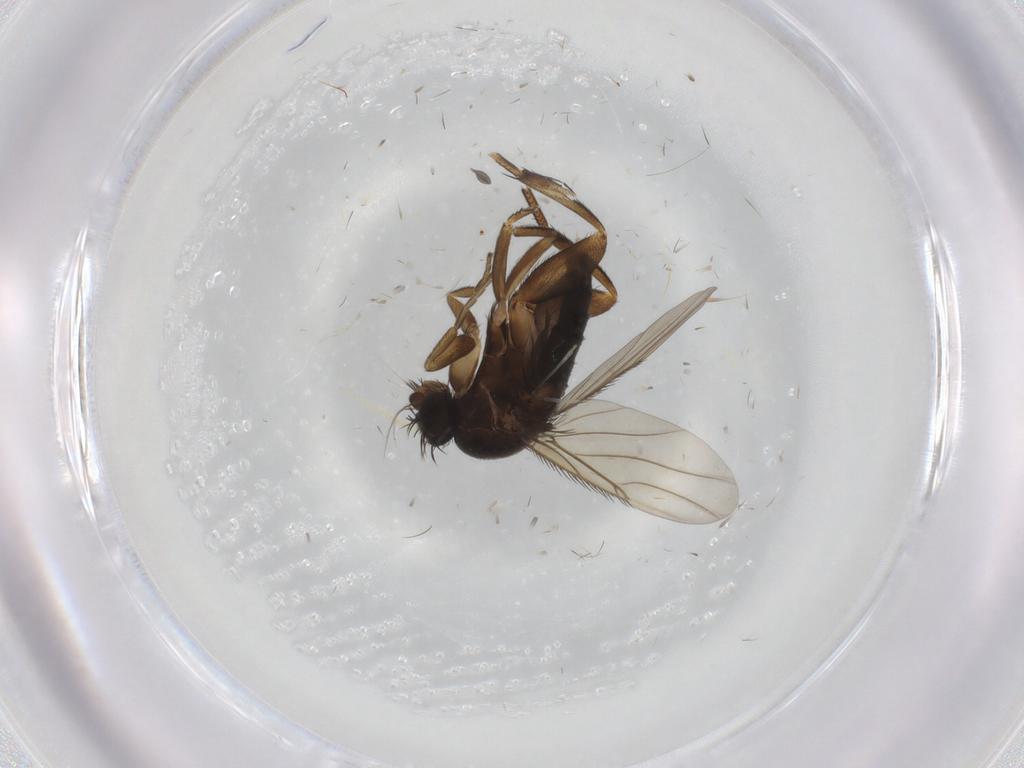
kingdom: Animalia
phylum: Arthropoda
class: Insecta
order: Diptera
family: Phoridae
